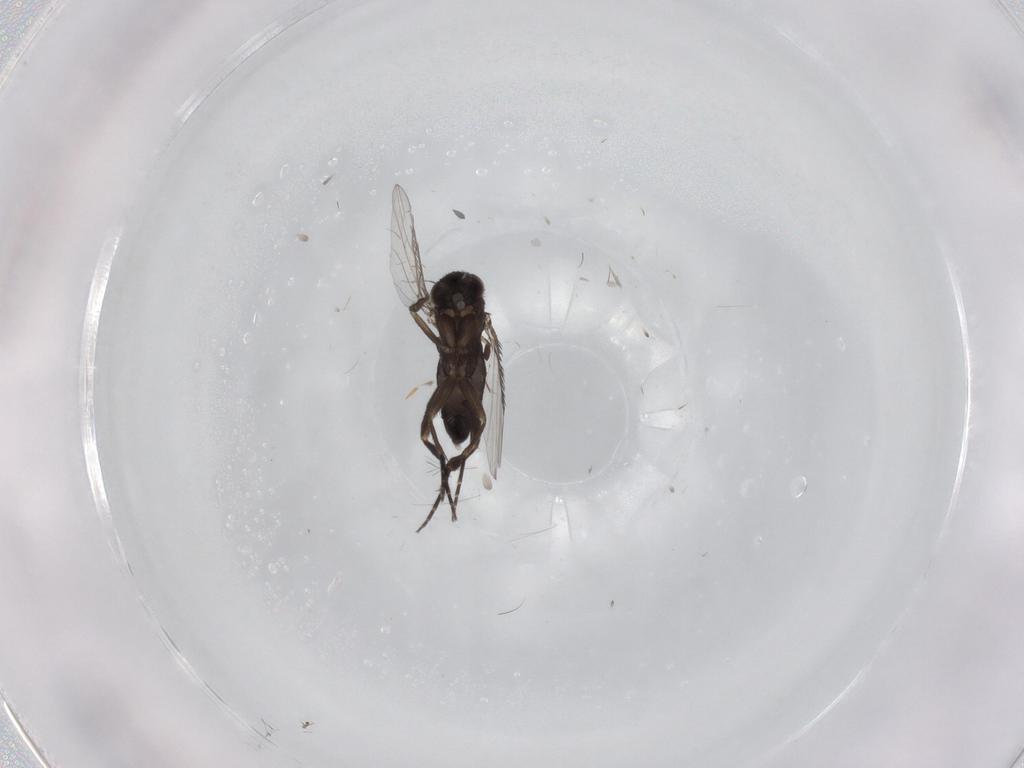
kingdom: Animalia
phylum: Arthropoda
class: Insecta
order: Diptera
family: Phoridae
